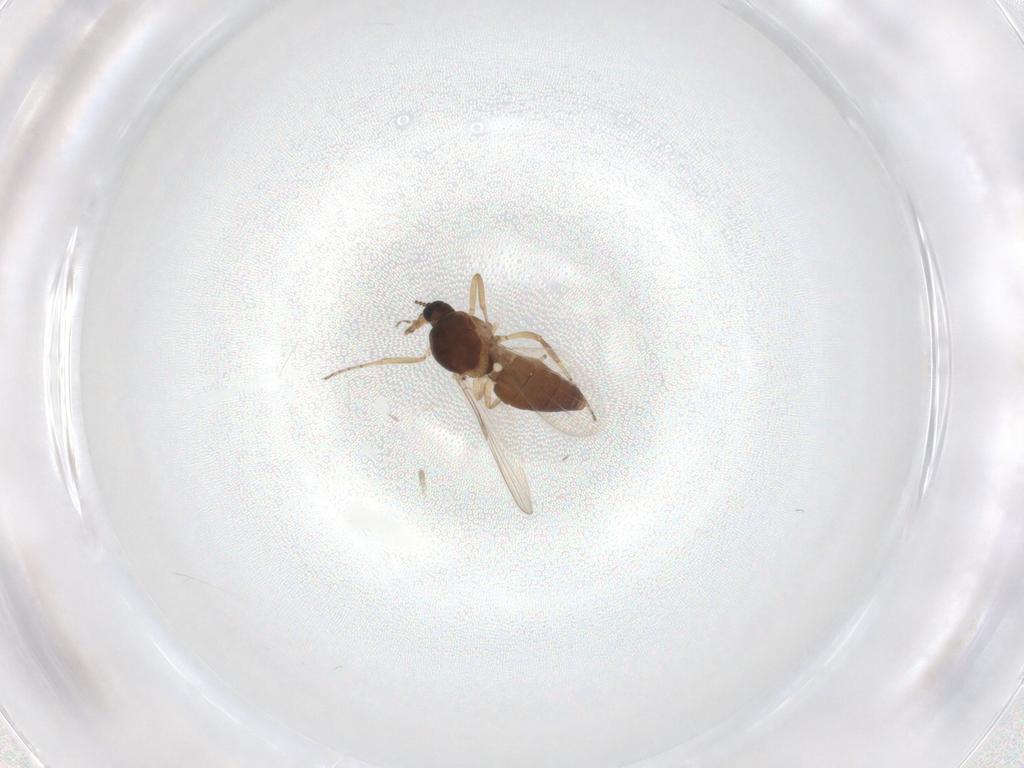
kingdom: Animalia
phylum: Arthropoda
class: Insecta
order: Diptera
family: Ceratopogonidae
